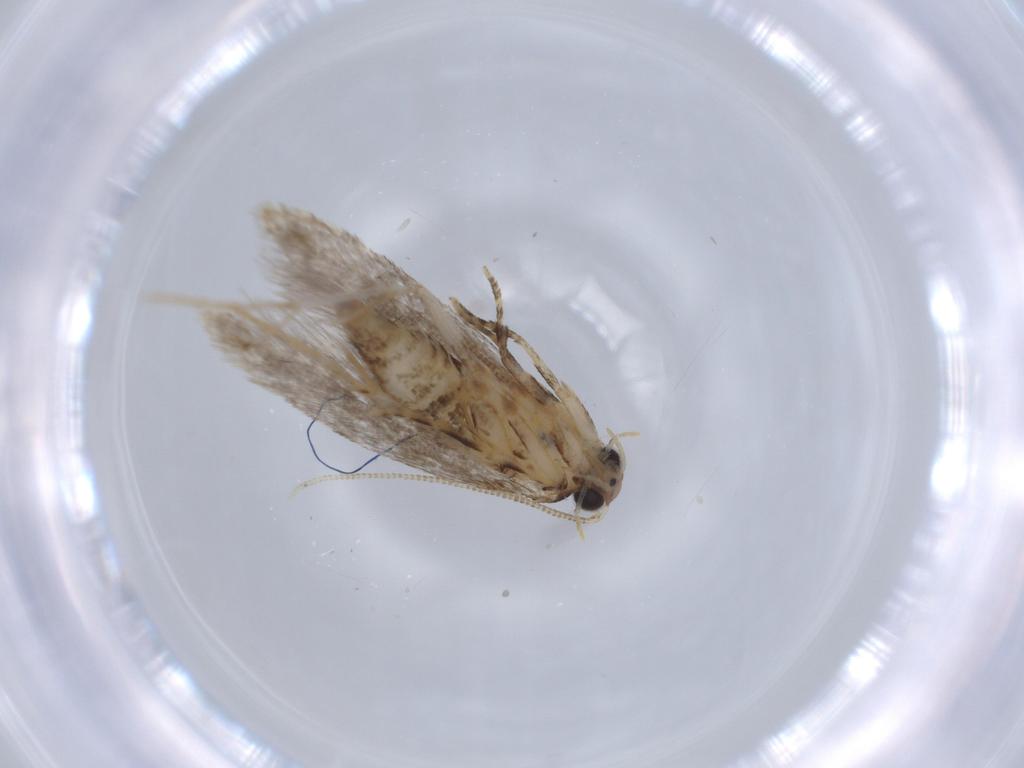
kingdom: Animalia
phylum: Arthropoda
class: Insecta
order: Lepidoptera
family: Tineidae
